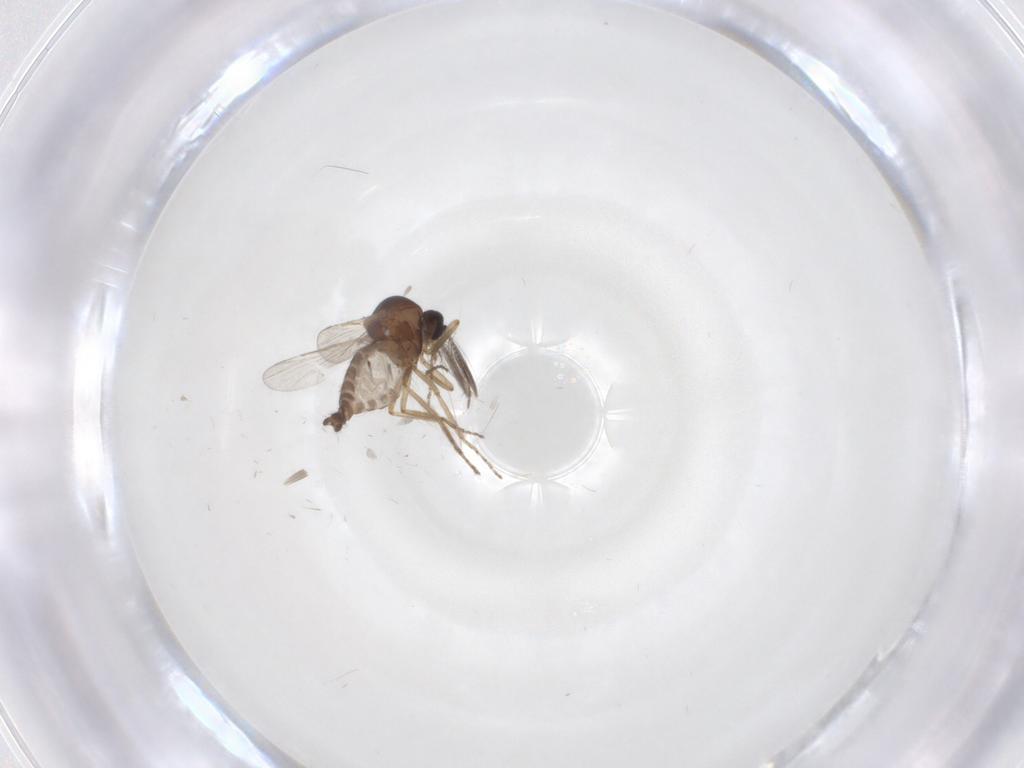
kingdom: Animalia
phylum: Arthropoda
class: Insecta
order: Diptera
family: Cecidomyiidae
